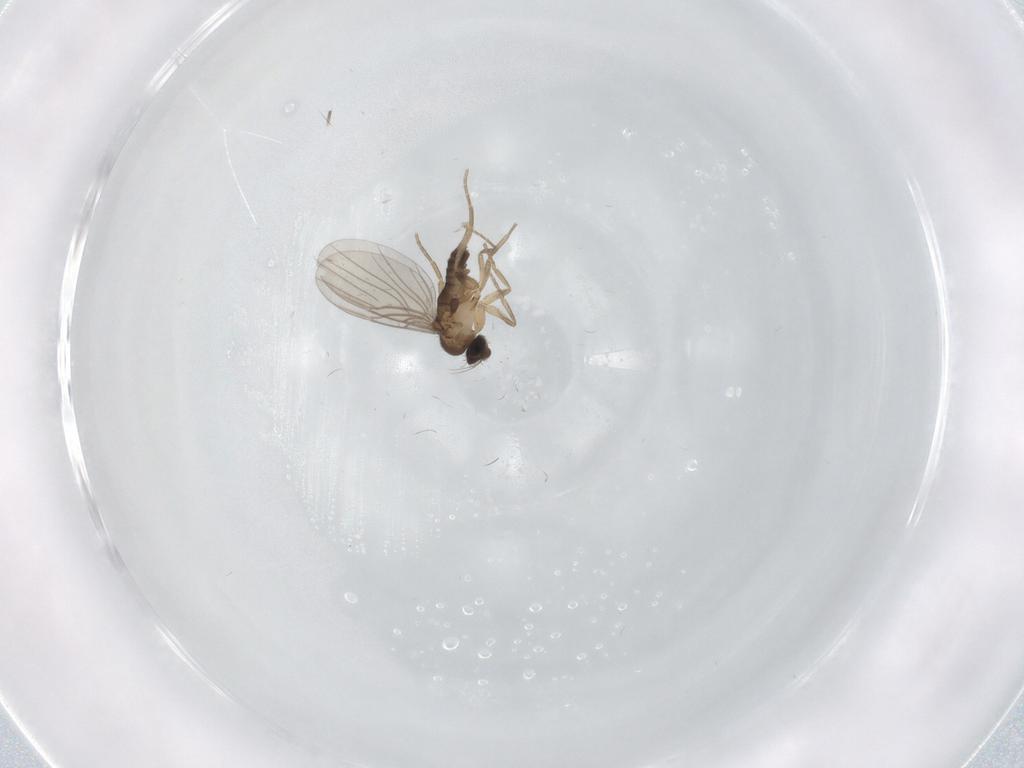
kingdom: Animalia
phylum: Arthropoda
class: Insecta
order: Diptera
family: Phoridae
